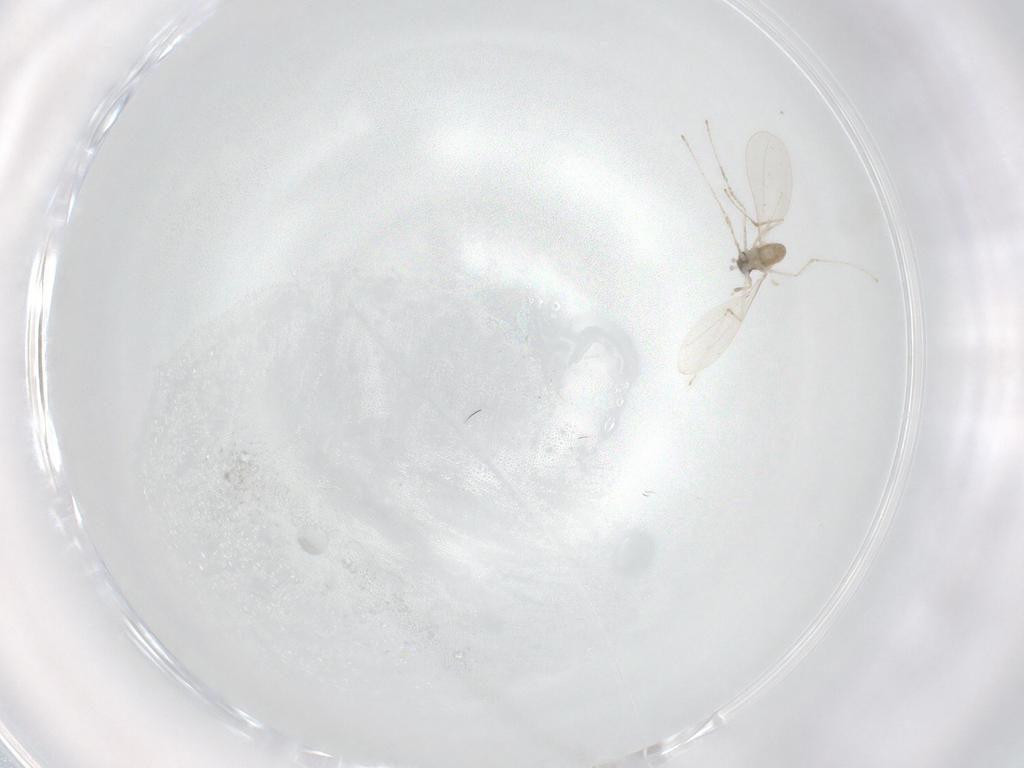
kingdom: Animalia
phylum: Arthropoda
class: Insecta
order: Diptera
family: Cecidomyiidae
